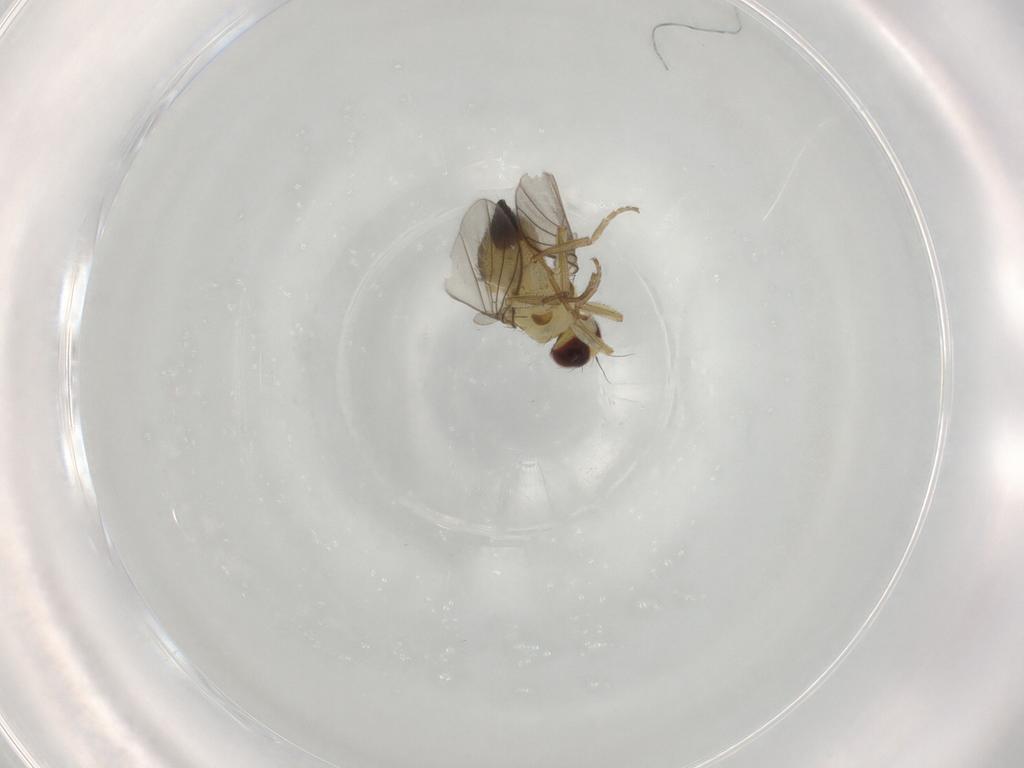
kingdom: Animalia
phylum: Arthropoda
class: Insecta
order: Diptera
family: Agromyzidae
